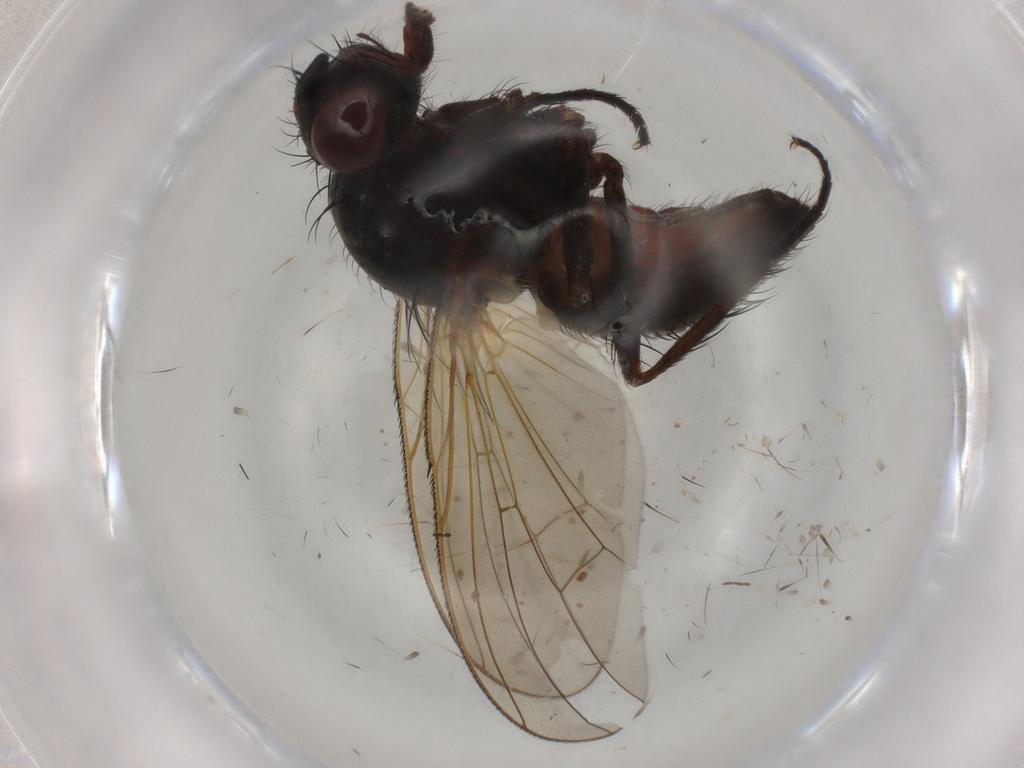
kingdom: Animalia
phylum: Arthropoda
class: Insecta
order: Diptera
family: Anthomyiidae
